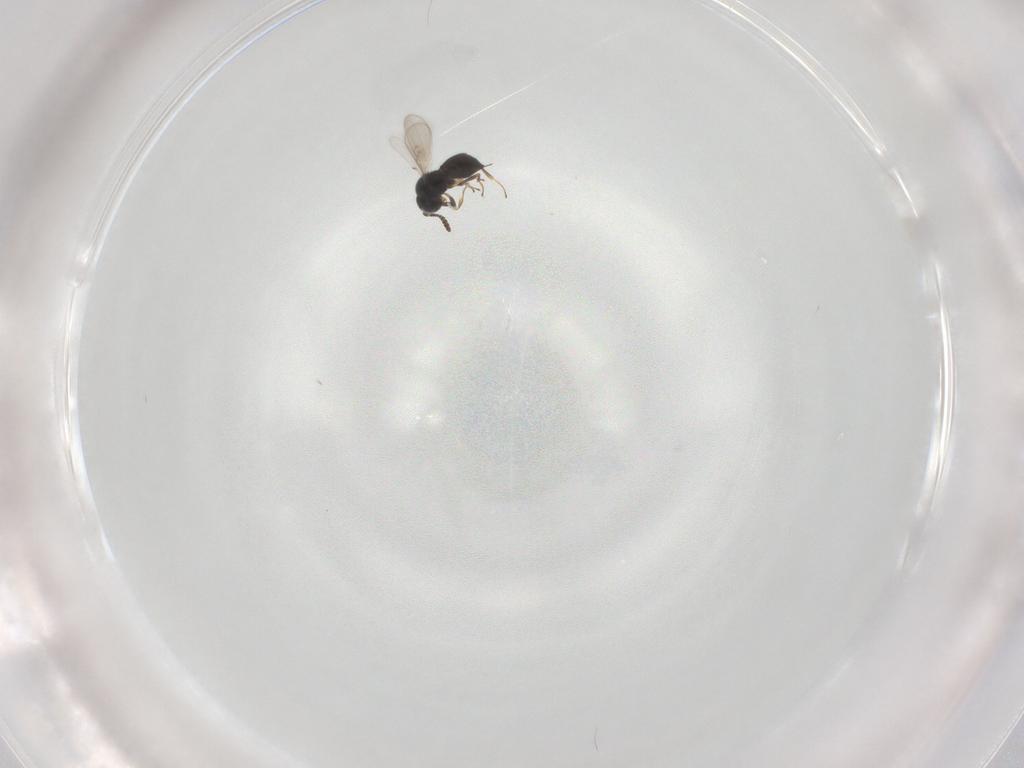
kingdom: Animalia
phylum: Arthropoda
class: Insecta
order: Hymenoptera
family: Scelionidae
